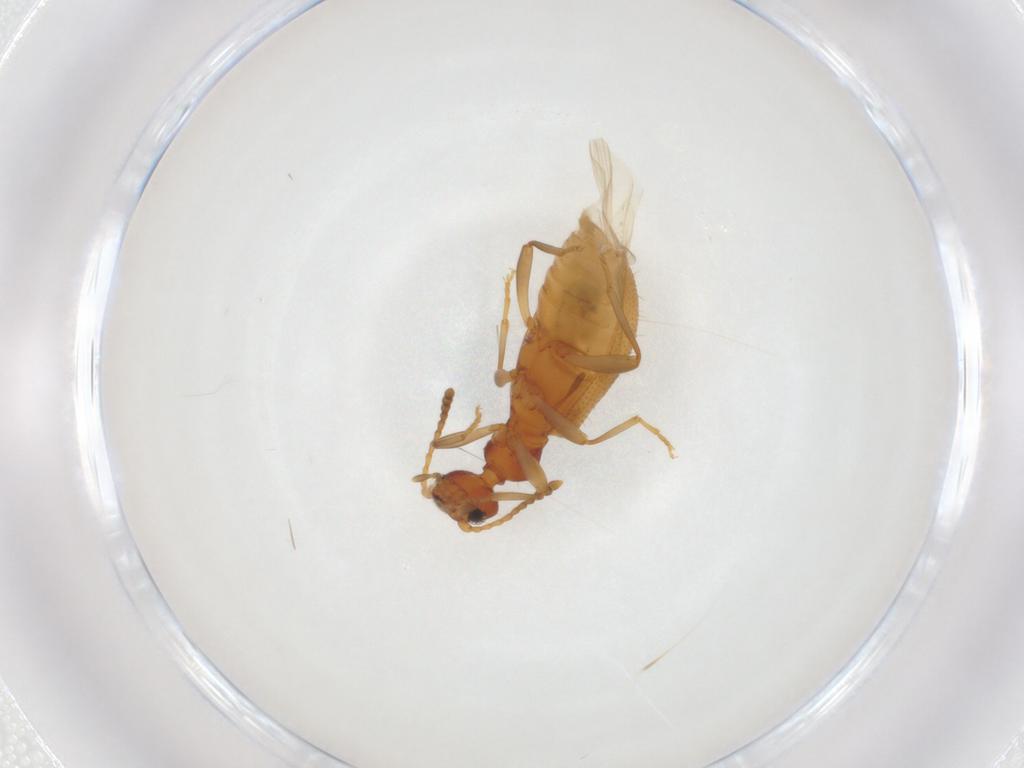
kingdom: Animalia
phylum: Arthropoda
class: Insecta
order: Coleoptera
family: Anthicidae
